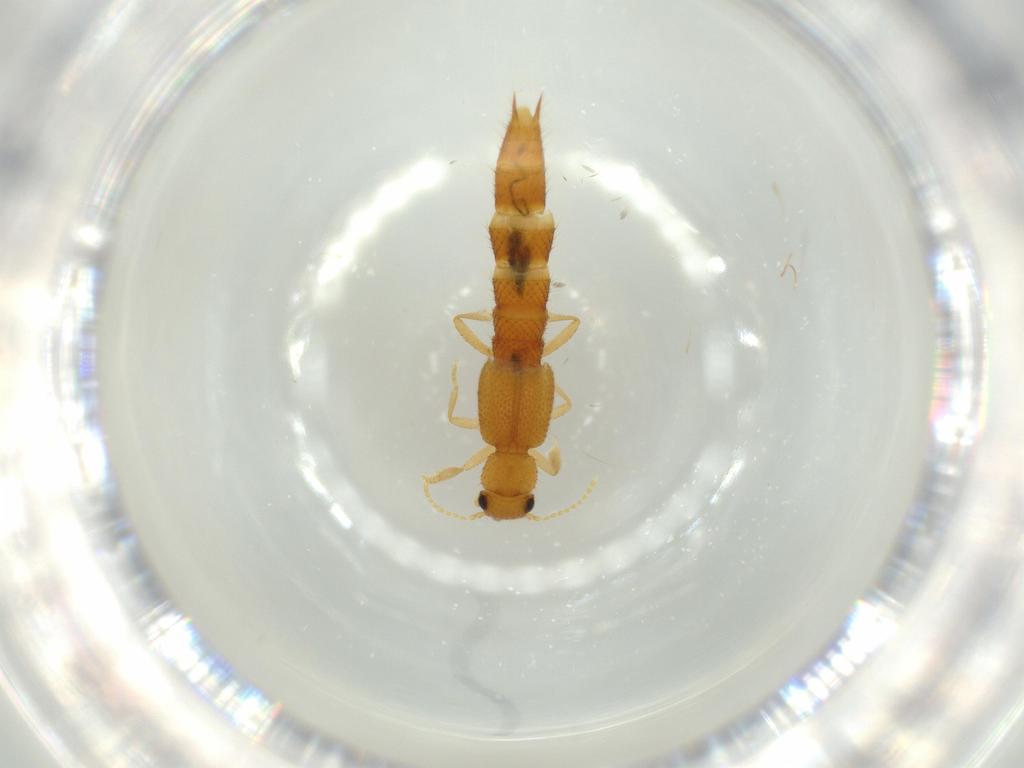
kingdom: Animalia
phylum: Arthropoda
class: Insecta
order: Coleoptera
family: Staphylinidae
